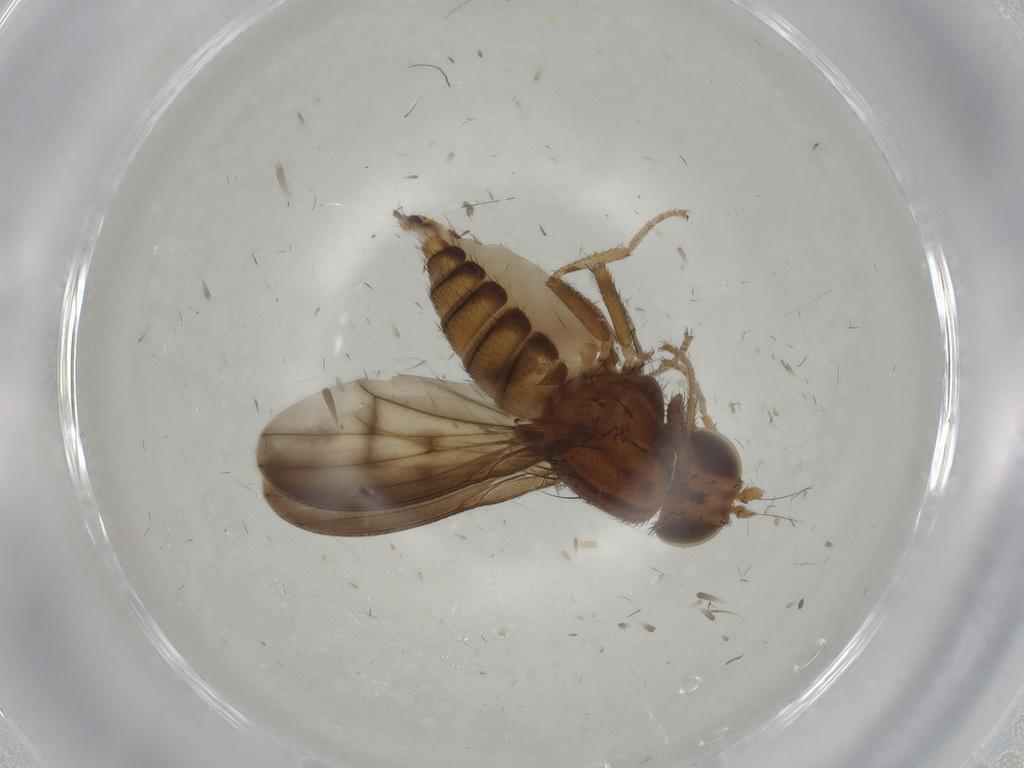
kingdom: Animalia
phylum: Arthropoda
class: Insecta
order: Diptera
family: Lauxaniidae
